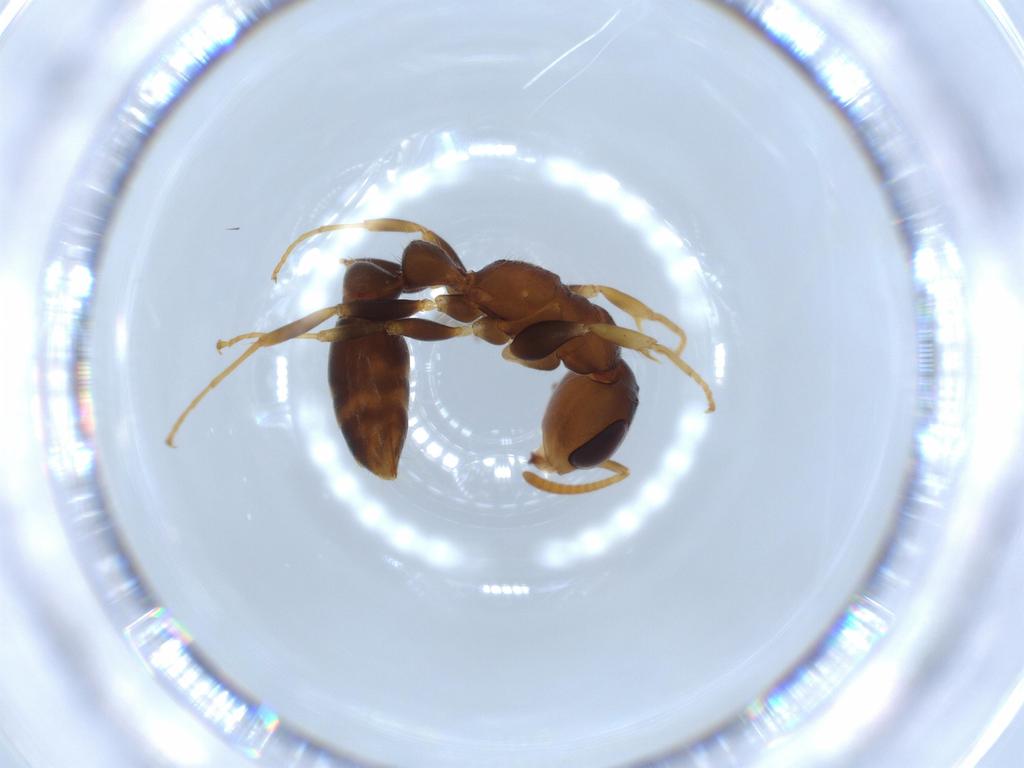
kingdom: Animalia
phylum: Arthropoda
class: Insecta
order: Hymenoptera
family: Formicidae
